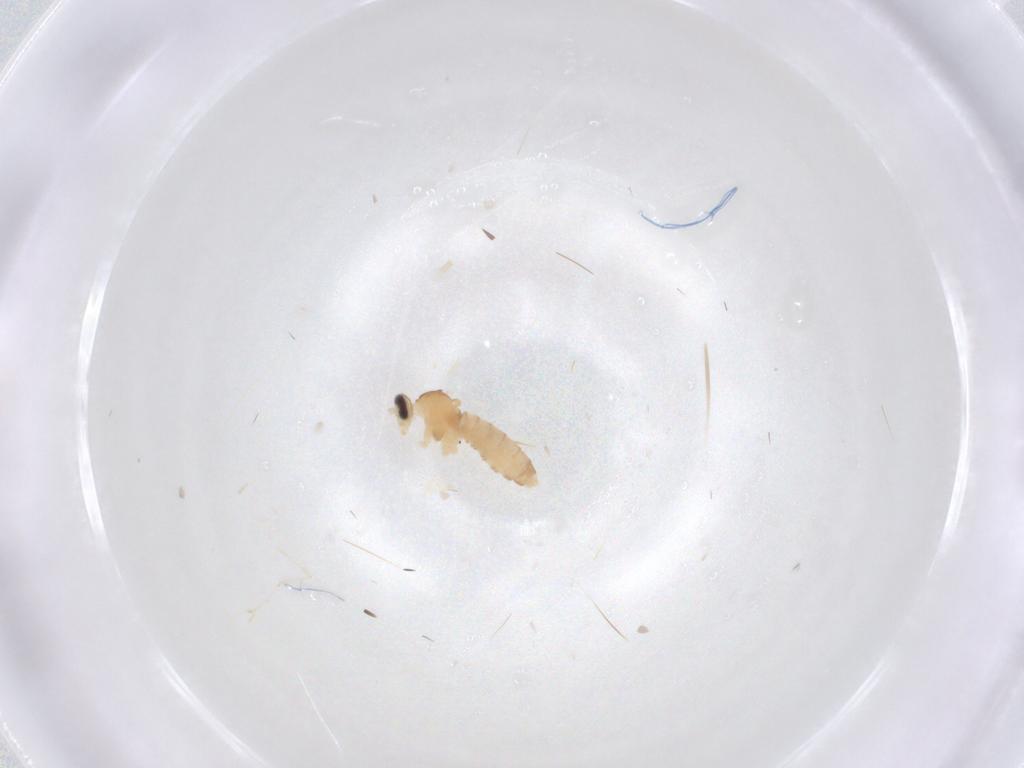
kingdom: Animalia
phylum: Arthropoda
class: Insecta
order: Diptera
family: Cecidomyiidae
